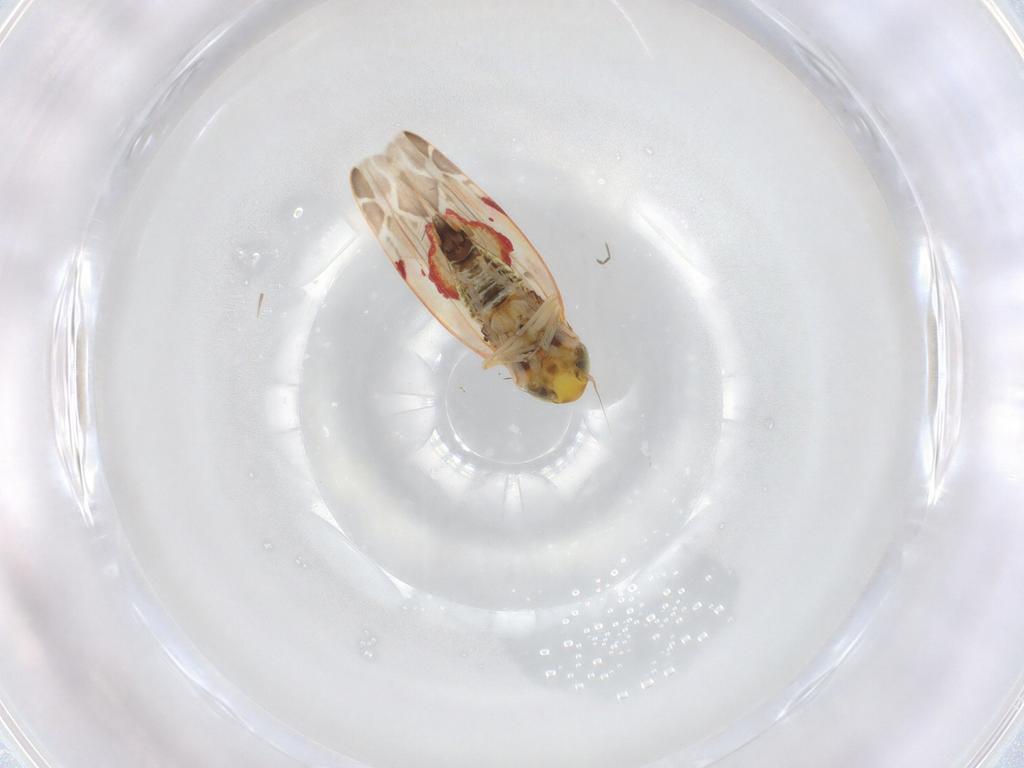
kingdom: Animalia
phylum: Arthropoda
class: Insecta
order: Hemiptera
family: Cicadellidae
